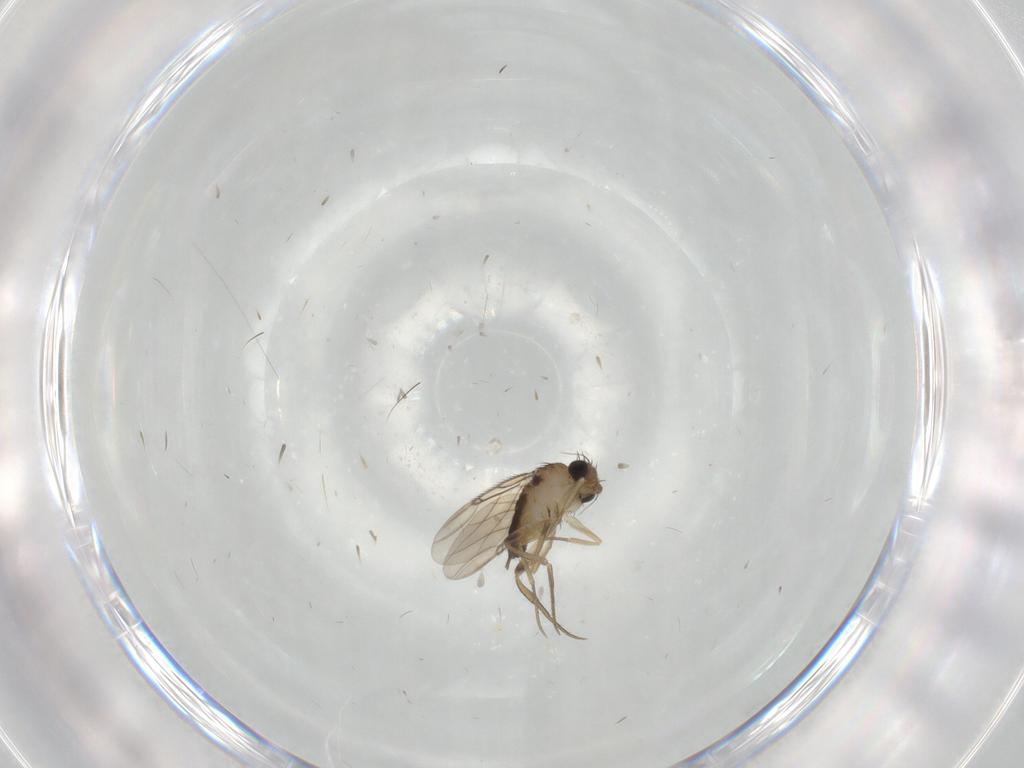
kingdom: Animalia
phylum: Arthropoda
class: Insecta
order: Diptera
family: Phoridae
